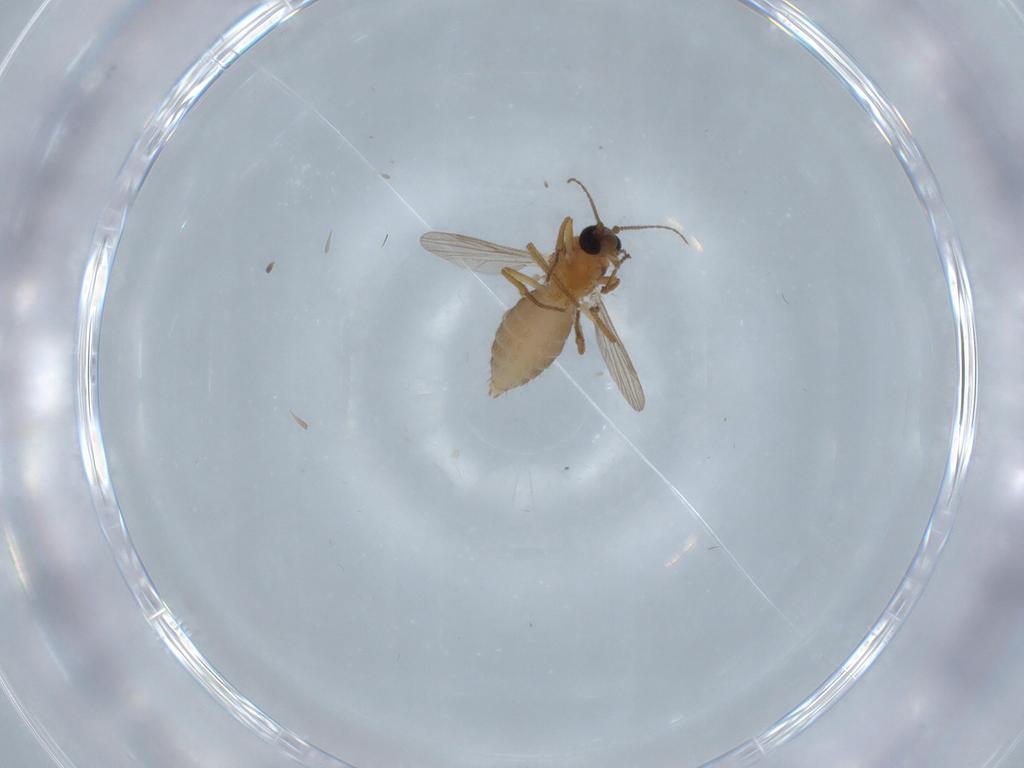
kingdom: Animalia
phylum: Arthropoda
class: Insecta
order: Diptera
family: Ceratopogonidae
